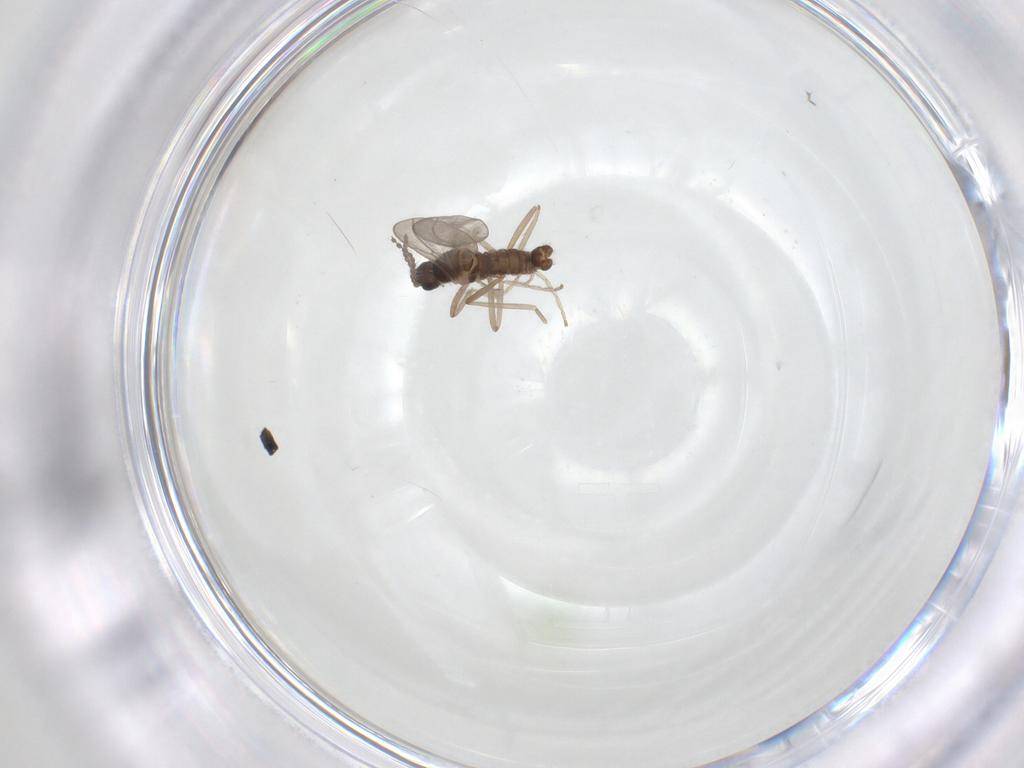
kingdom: Animalia
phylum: Arthropoda
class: Insecta
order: Diptera
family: Cecidomyiidae
